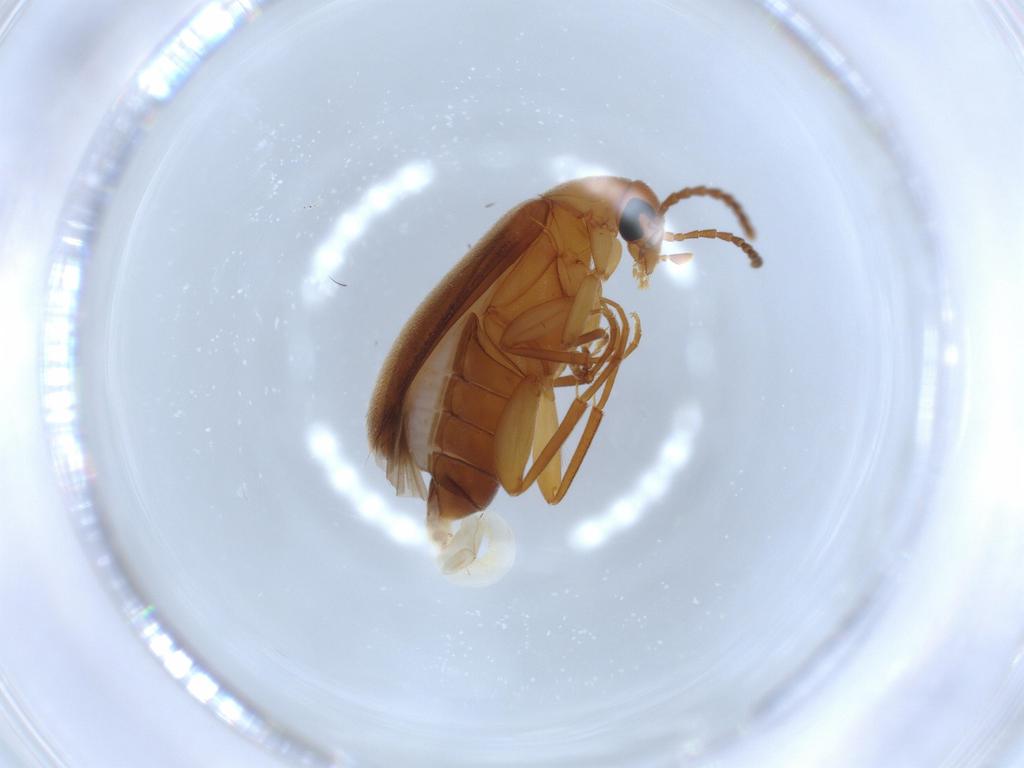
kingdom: Animalia
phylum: Arthropoda
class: Insecta
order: Coleoptera
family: Scraptiidae
